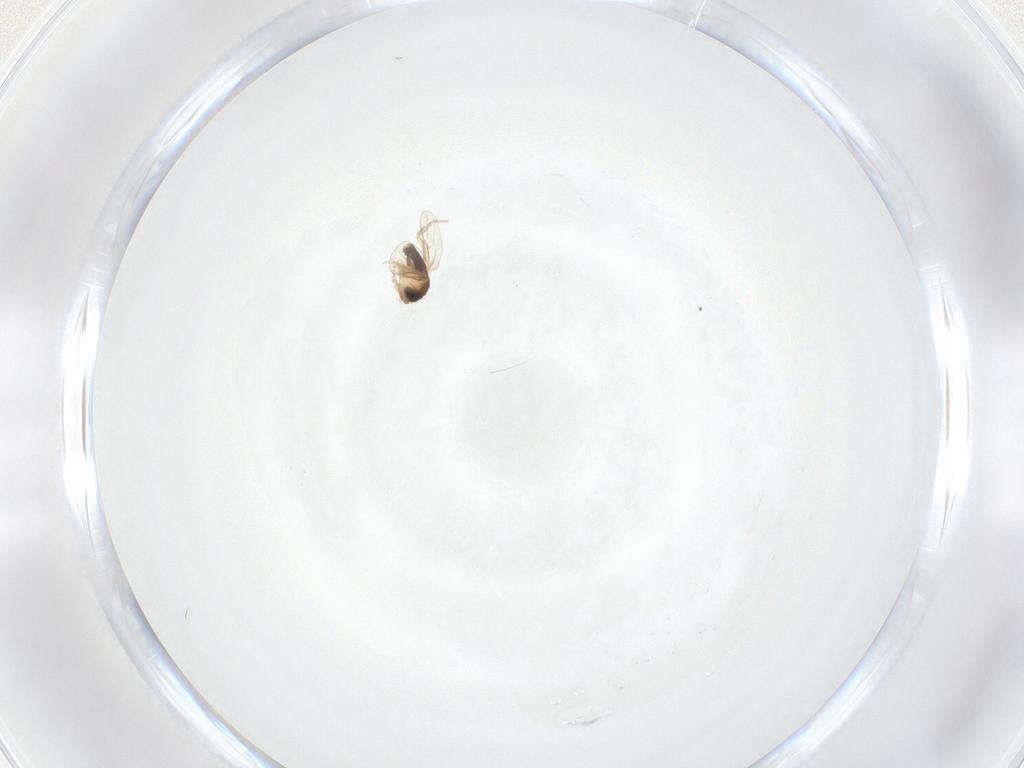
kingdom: Animalia
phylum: Arthropoda
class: Insecta
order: Diptera
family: Phoridae
